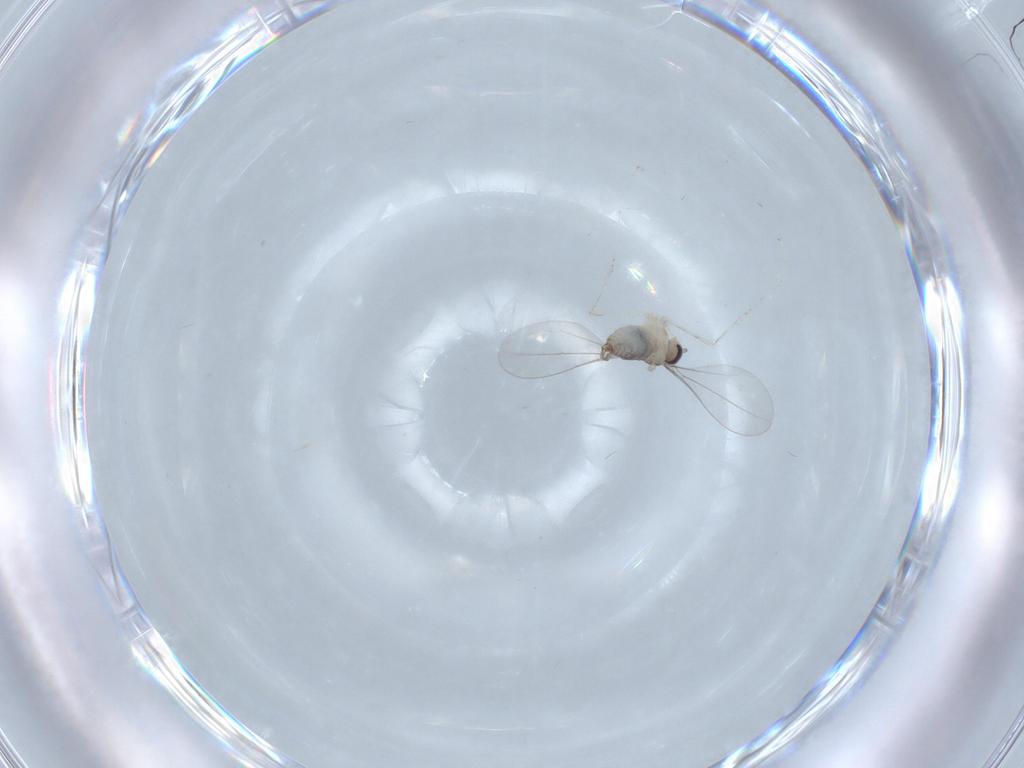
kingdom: Animalia
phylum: Arthropoda
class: Insecta
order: Diptera
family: Cecidomyiidae
